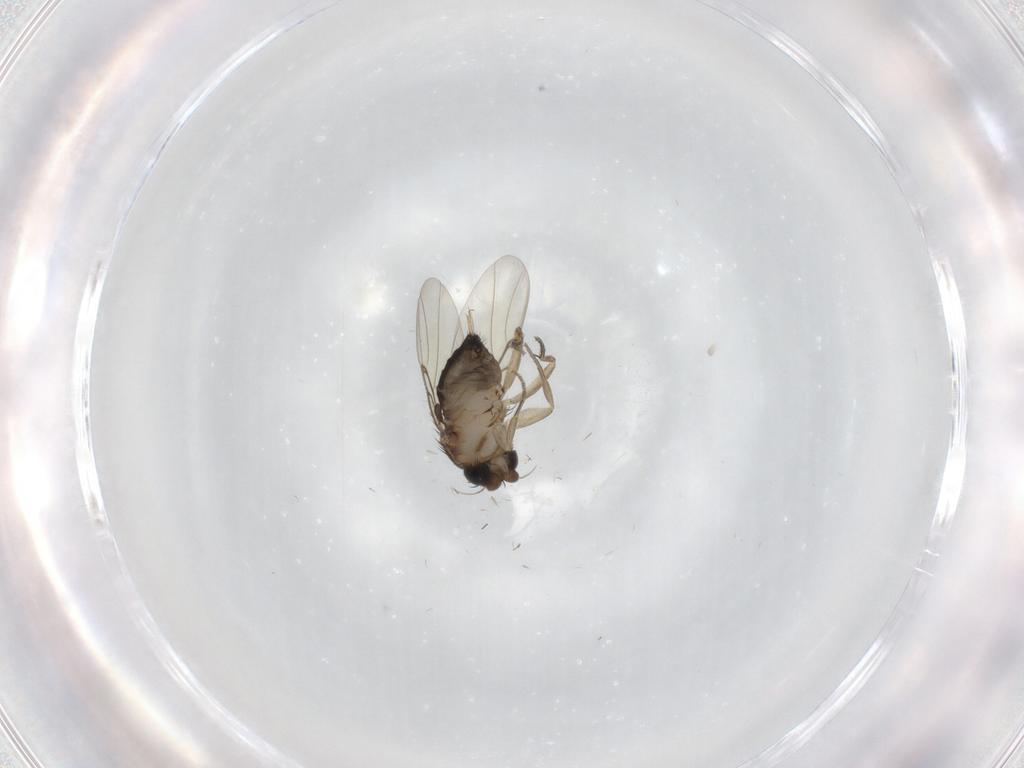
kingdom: Animalia
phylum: Arthropoda
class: Insecta
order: Diptera
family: Phoridae
